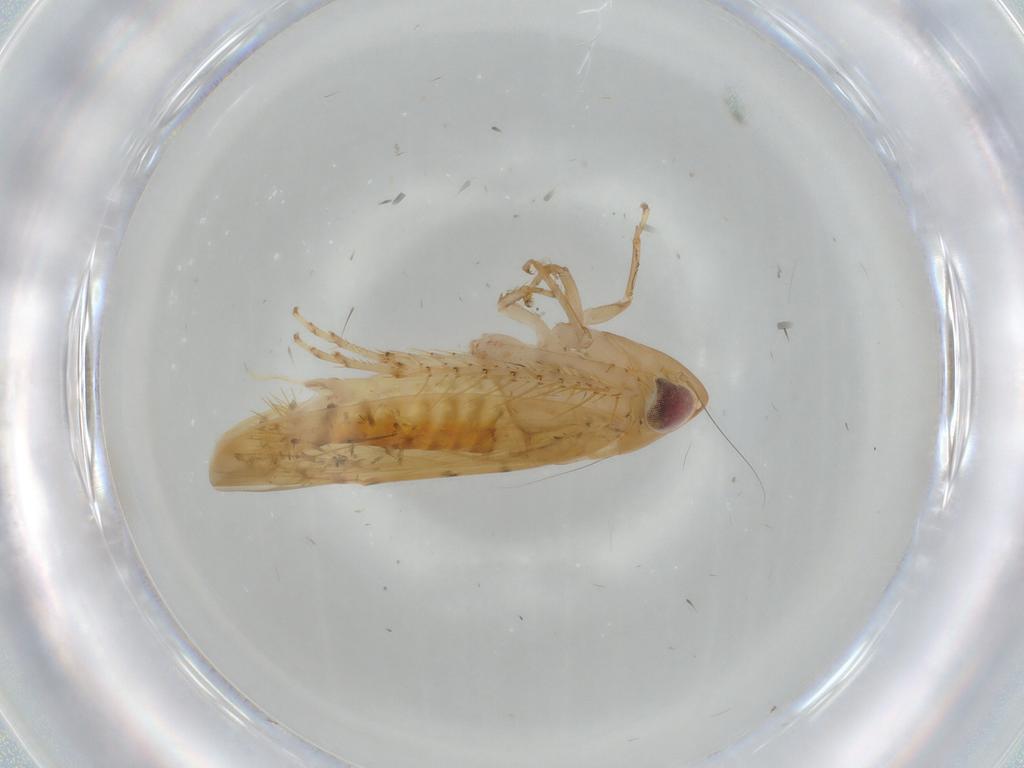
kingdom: Animalia
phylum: Arthropoda
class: Insecta
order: Hemiptera
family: Cicadellidae
